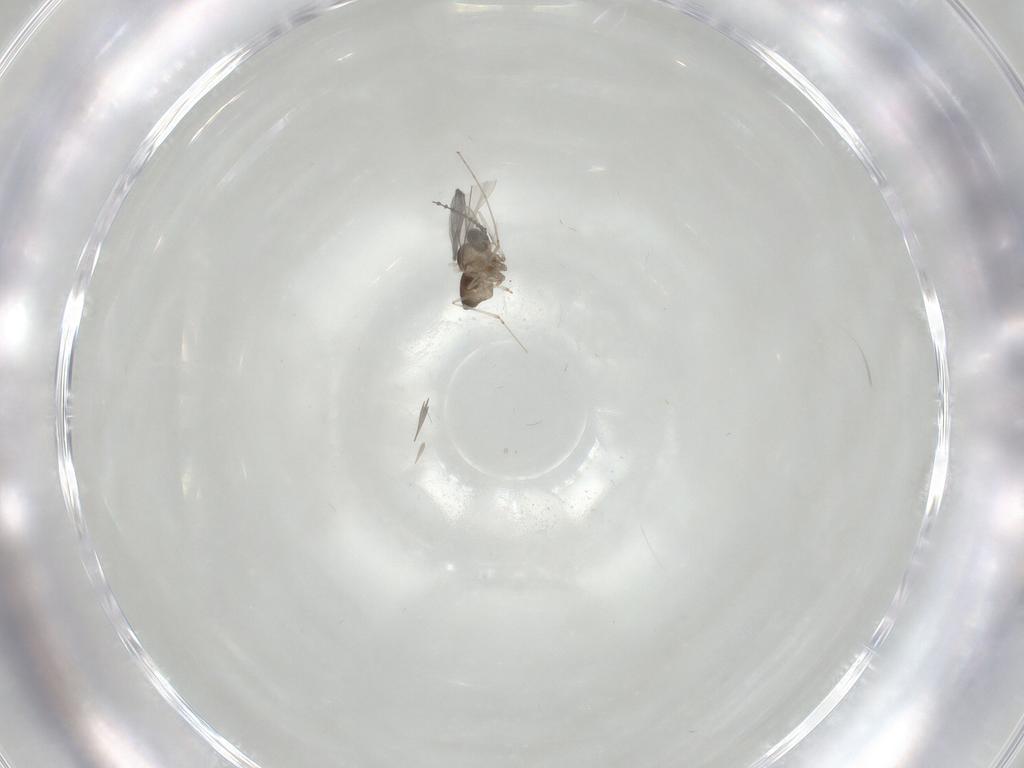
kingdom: Animalia
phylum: Arthropoda
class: Insecta
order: Diptera
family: Cecidomyiidae
